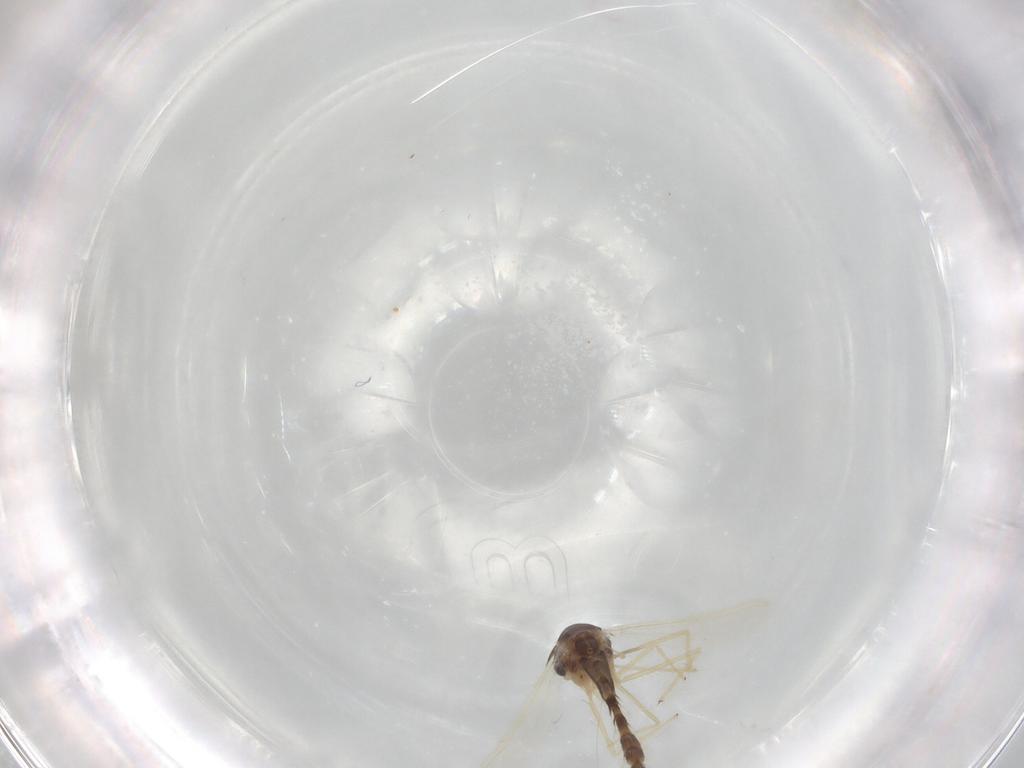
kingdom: Animalia
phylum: Arthropoda
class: Insecta
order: Diptera
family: Chironomidae
